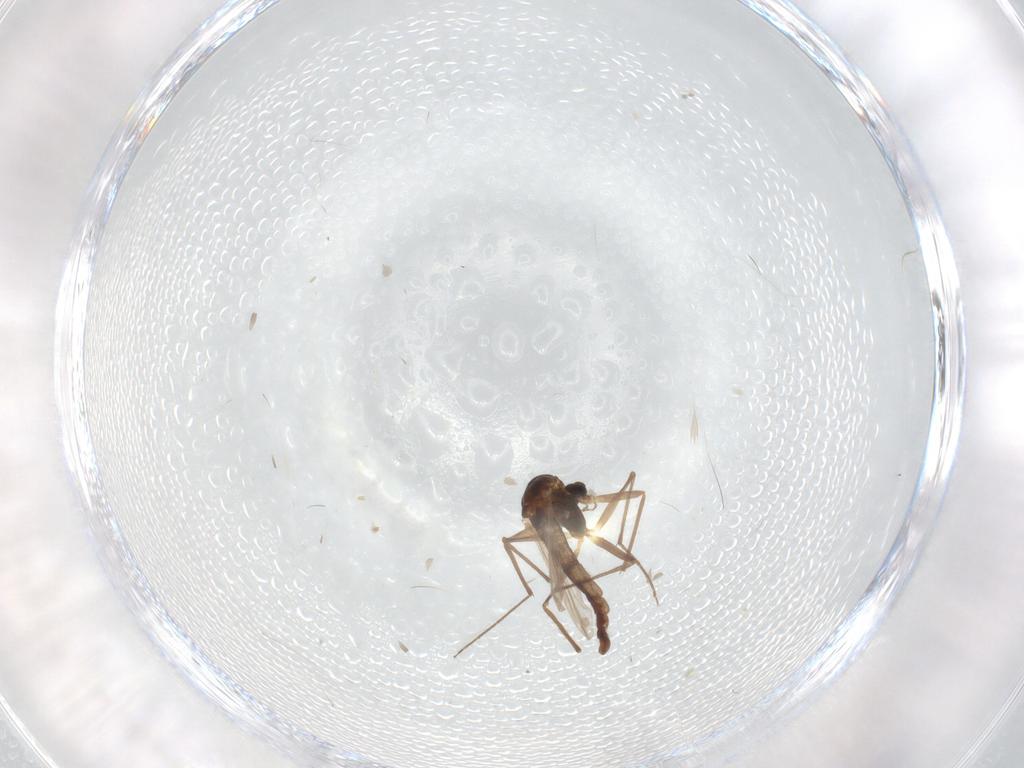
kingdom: Animalia
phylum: Arthropoda
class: Insecta
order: Diptera
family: Chironomidae
